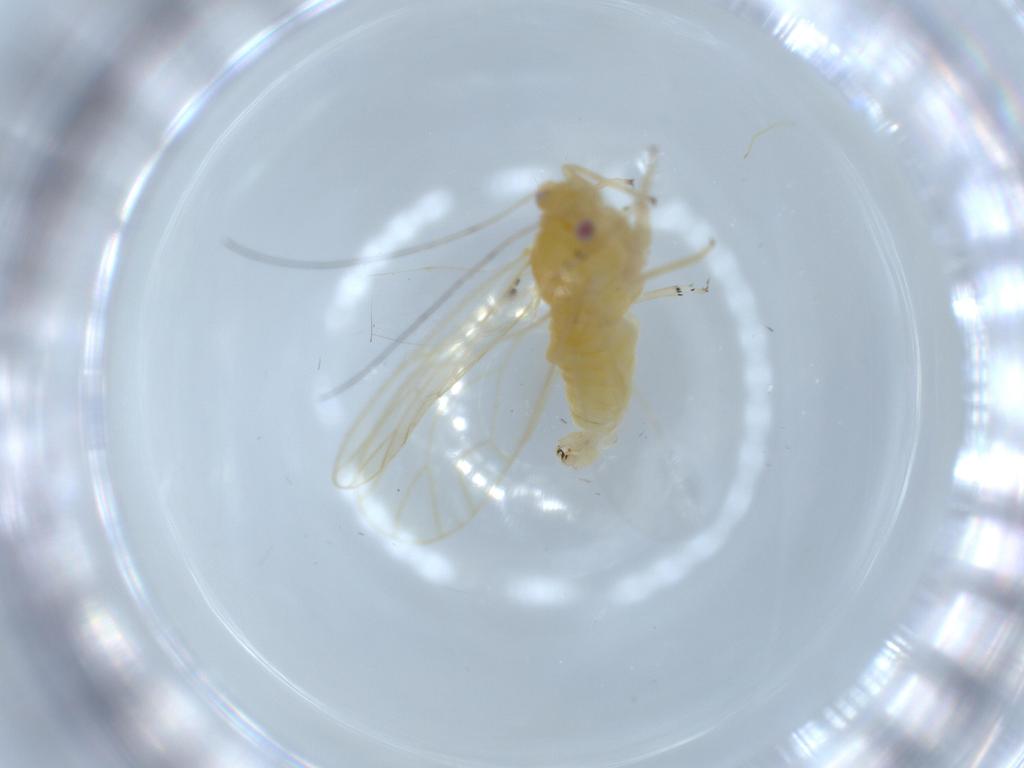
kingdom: Animalia
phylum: Arthropoda
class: Insecta
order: Hemiptera
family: Psyllidae
